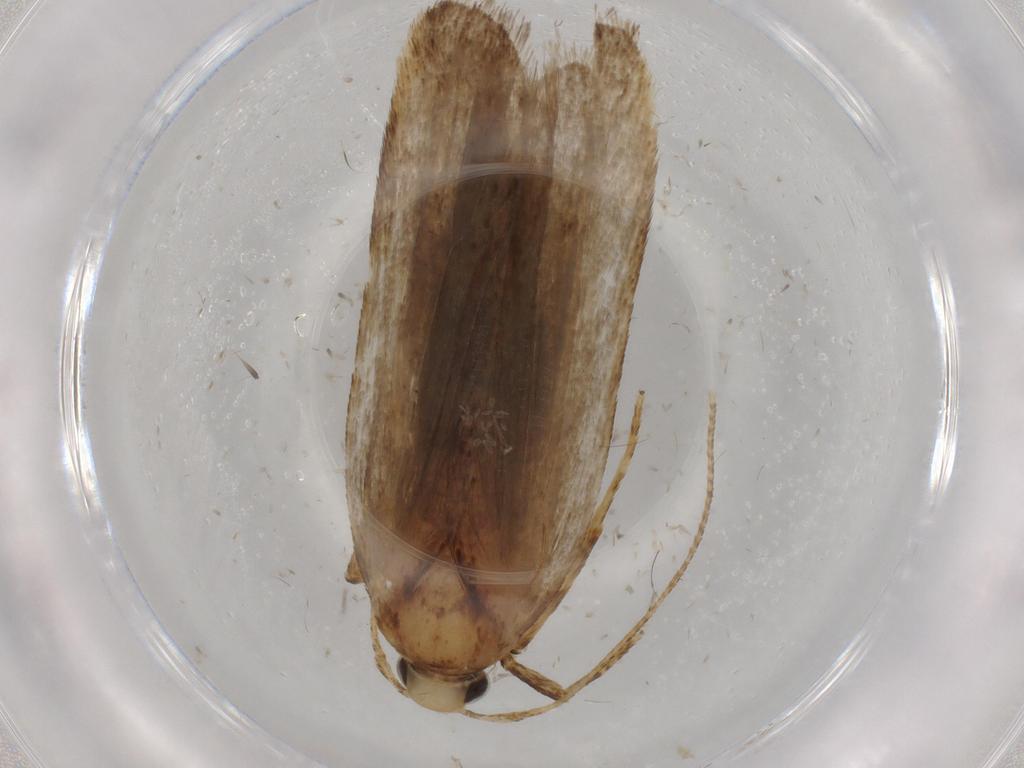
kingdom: Animalia
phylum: Arthropoda
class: Insecta
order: Lepidoptera
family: Autostichidae
